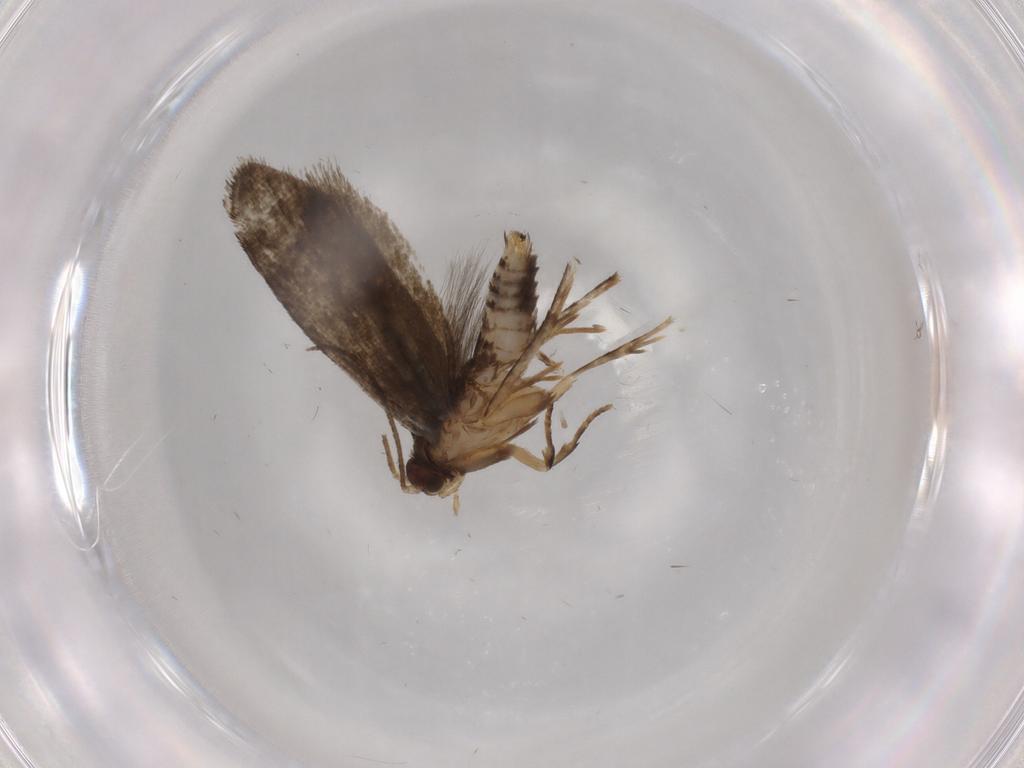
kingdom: Animalia
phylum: Arthropoda
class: Insecta
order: Lepidoptera
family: Crambidae
